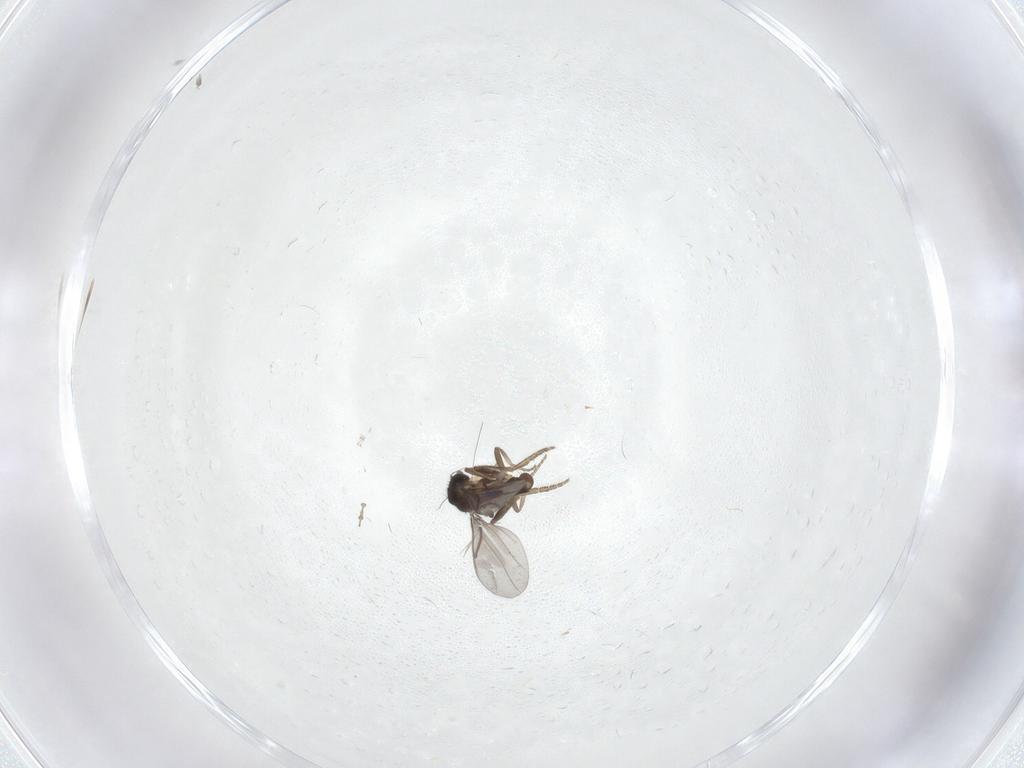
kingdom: Animalia
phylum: Arthropoda
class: Insecta
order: Diptera
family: Chironomidae
